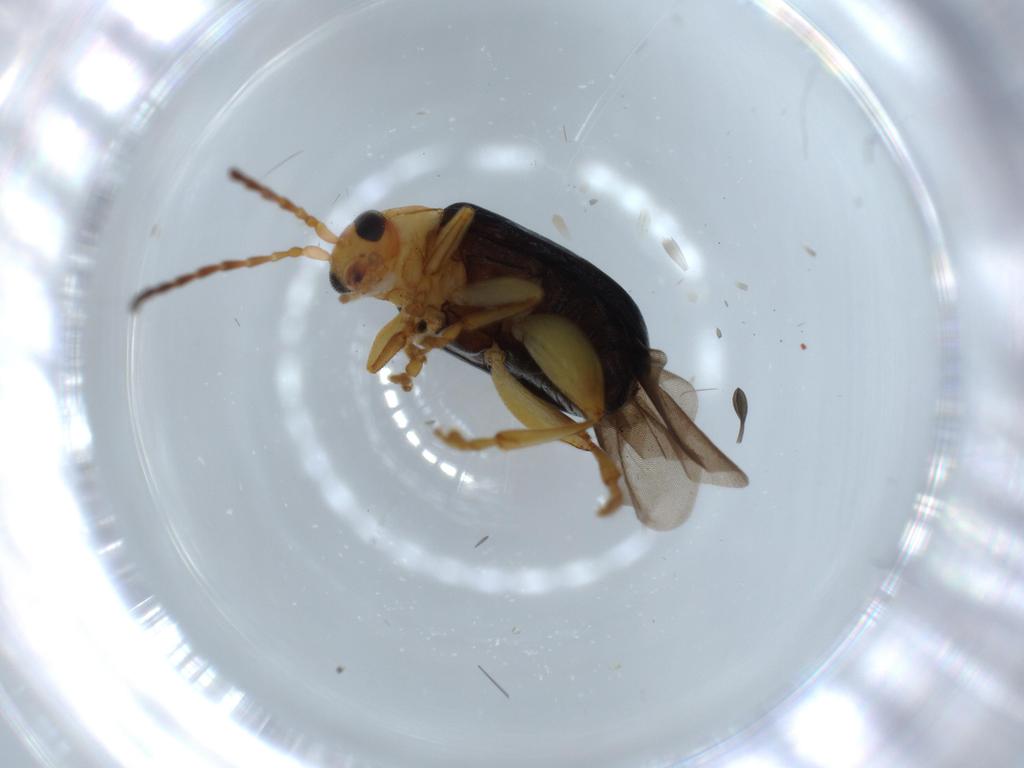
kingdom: Animalia
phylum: Arthropoda
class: Insecta
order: Coleoptera
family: Chrysomelidae
